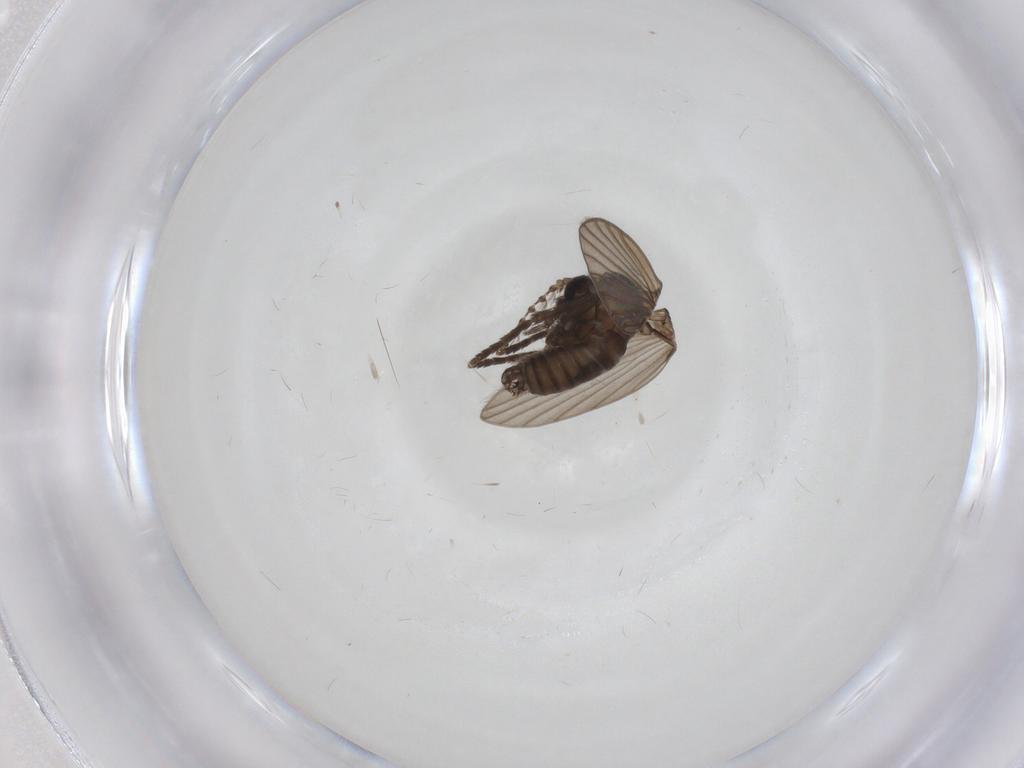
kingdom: Animalia
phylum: Arthropoda
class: Insecta
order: Diptera
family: Psychodidae
